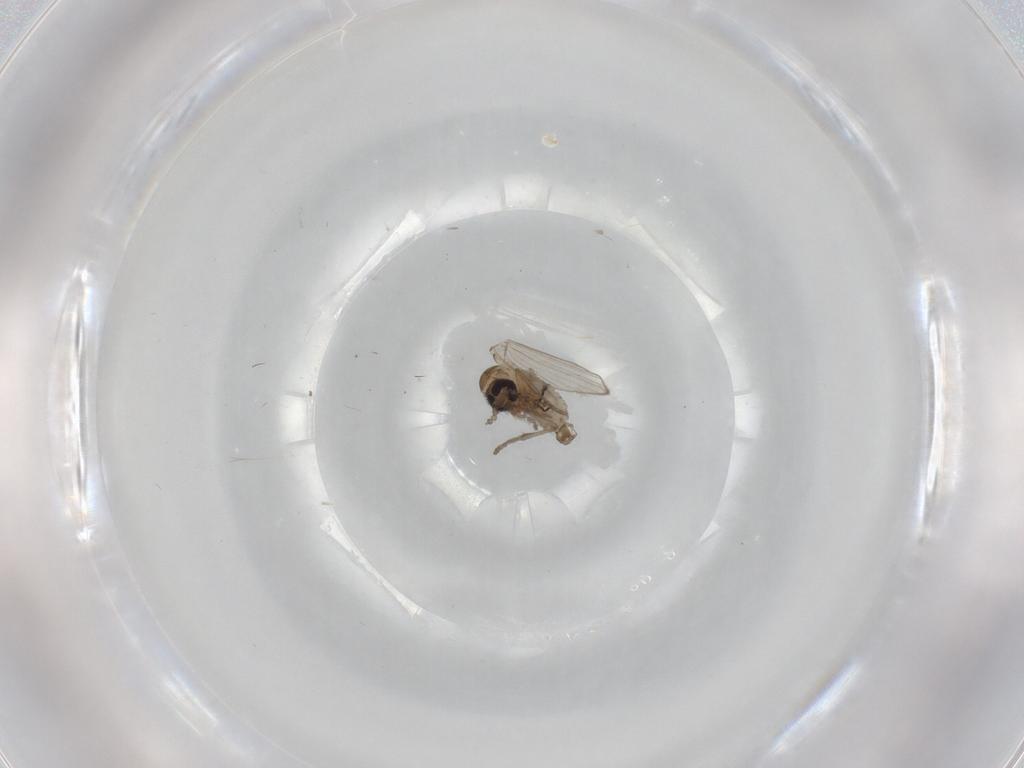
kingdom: Animalia
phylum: Arthropoda
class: Insecta
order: Diptera
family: Psychodidae
